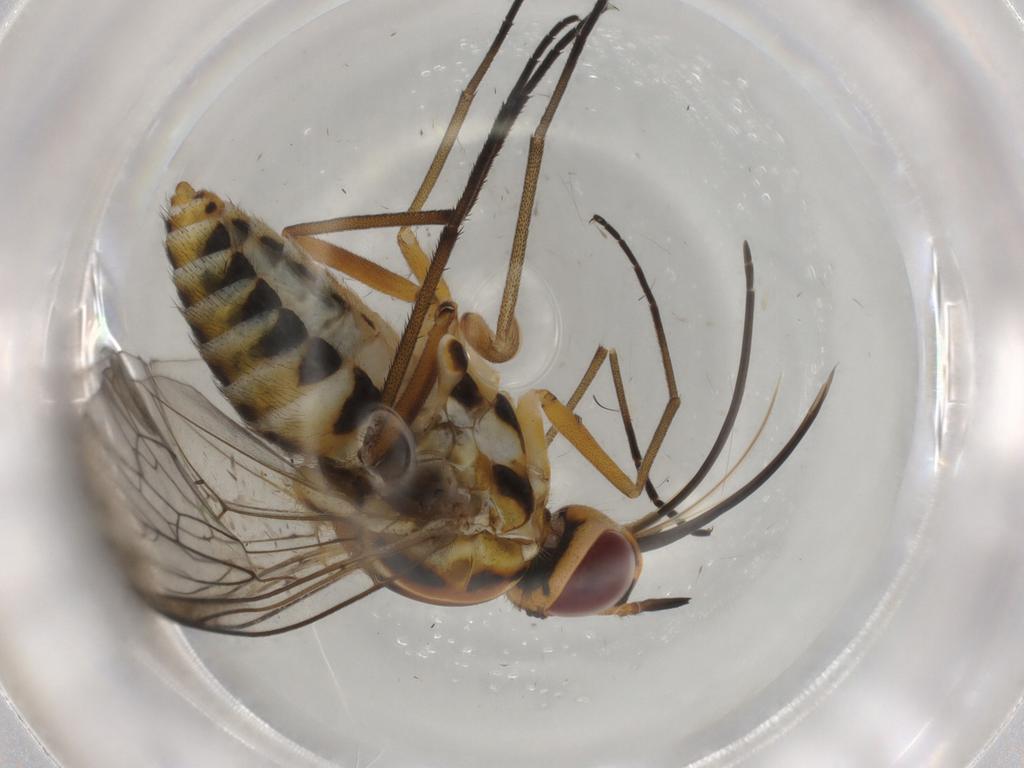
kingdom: Animalia
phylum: Arthropoda
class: Insecta
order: Diptera
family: Bombyliidae
